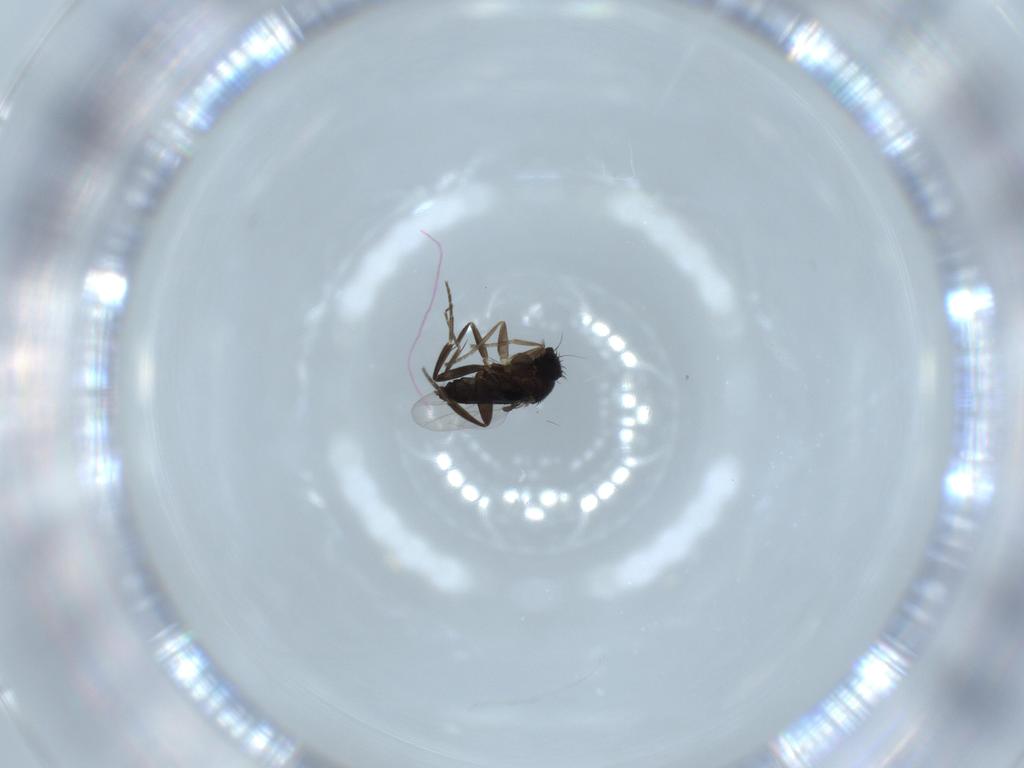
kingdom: Animalia
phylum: Arthropoda
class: Insecta
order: Diptera
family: Phoridae
